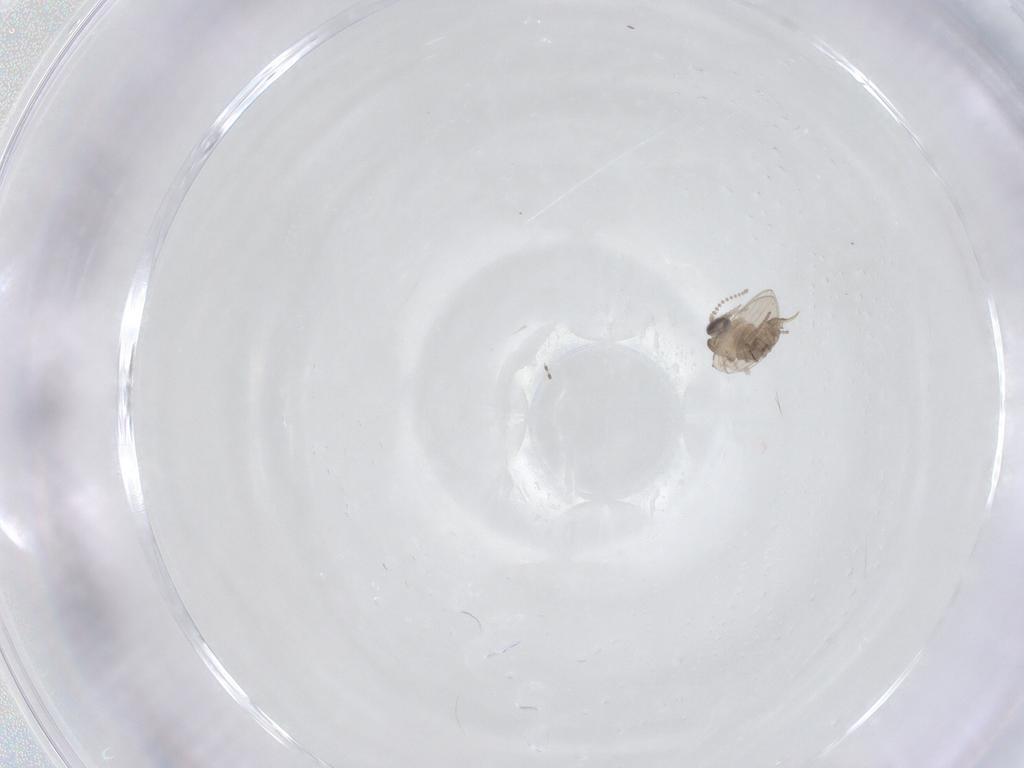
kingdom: Animalia
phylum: Arthropoda
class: Insecta
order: Diptera
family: Psychodidae
